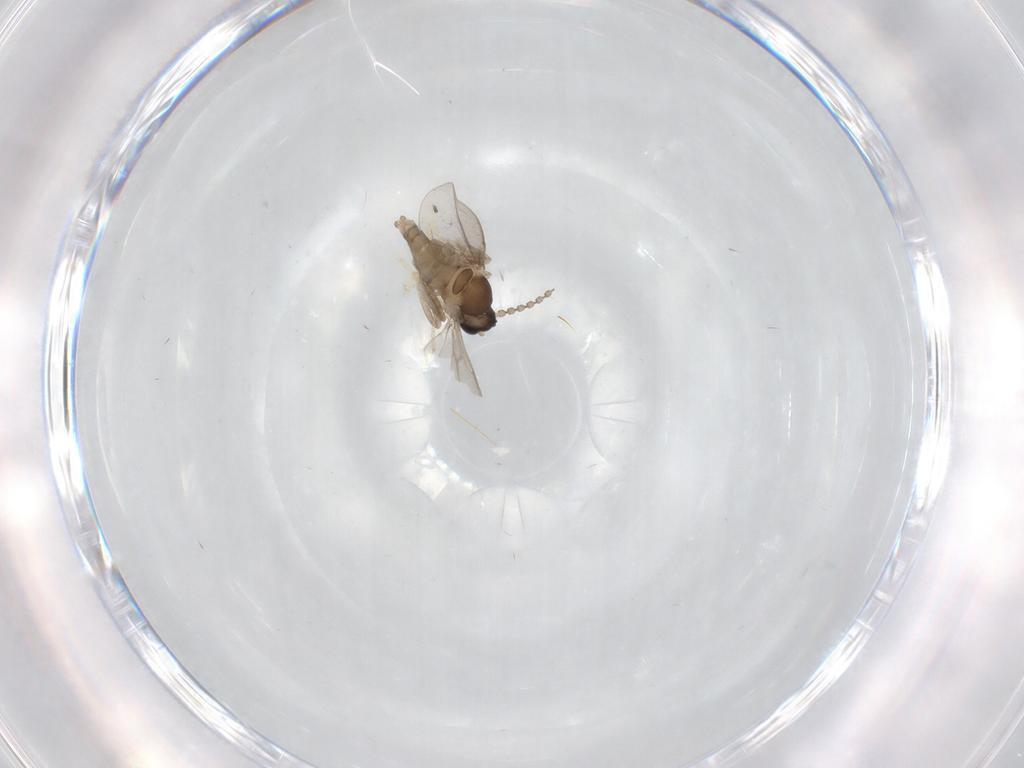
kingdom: Animalia
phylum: Arthropoda
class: Insecta
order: Diptera
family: Cecidomyiidae
